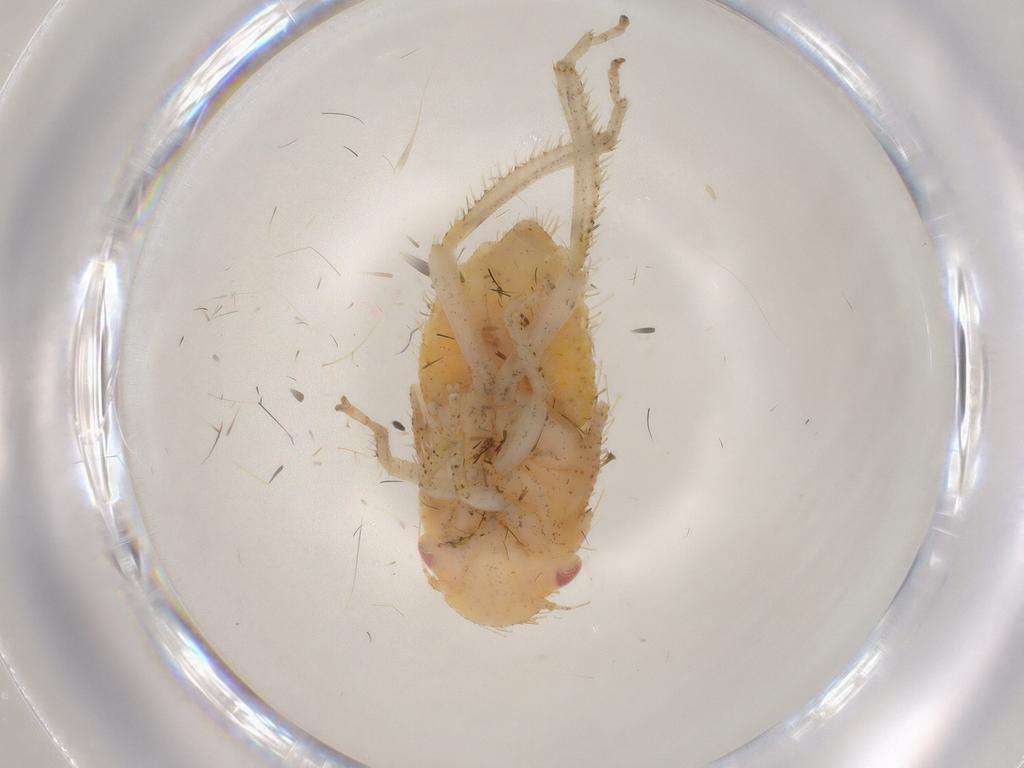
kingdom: Animalia
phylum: Arthropoda
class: Insecta
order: Hemiptera
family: Cicadellidae
